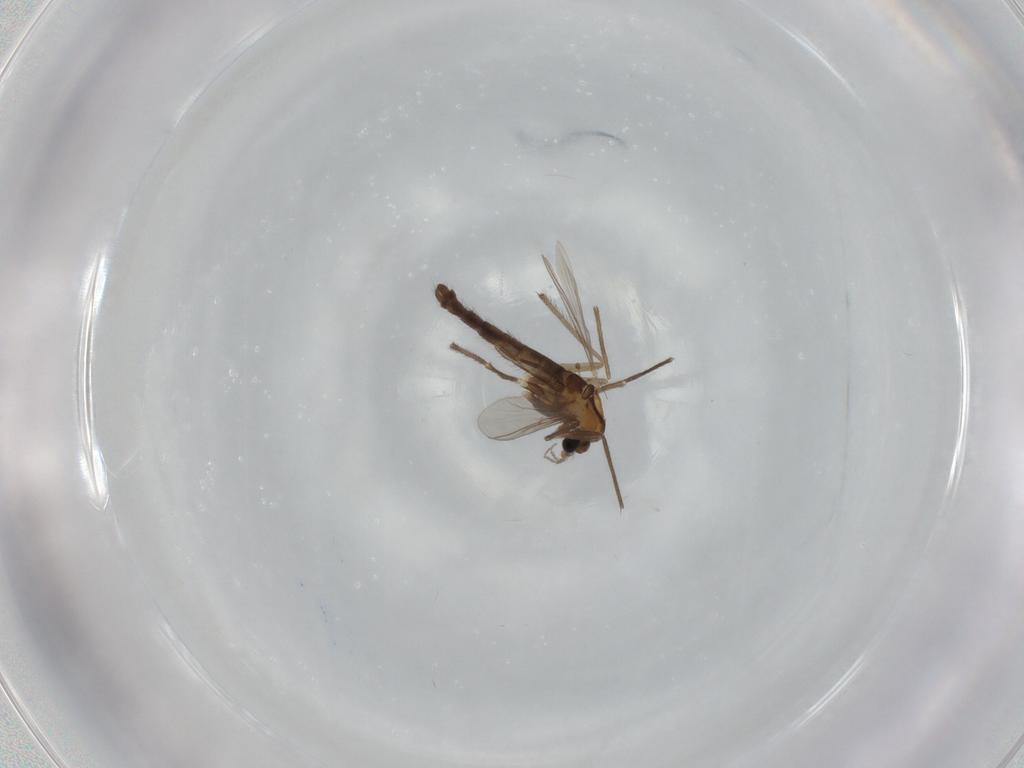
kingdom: Animalia
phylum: Arthropoda
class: Insecta
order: Diptera
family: Chironomidae
